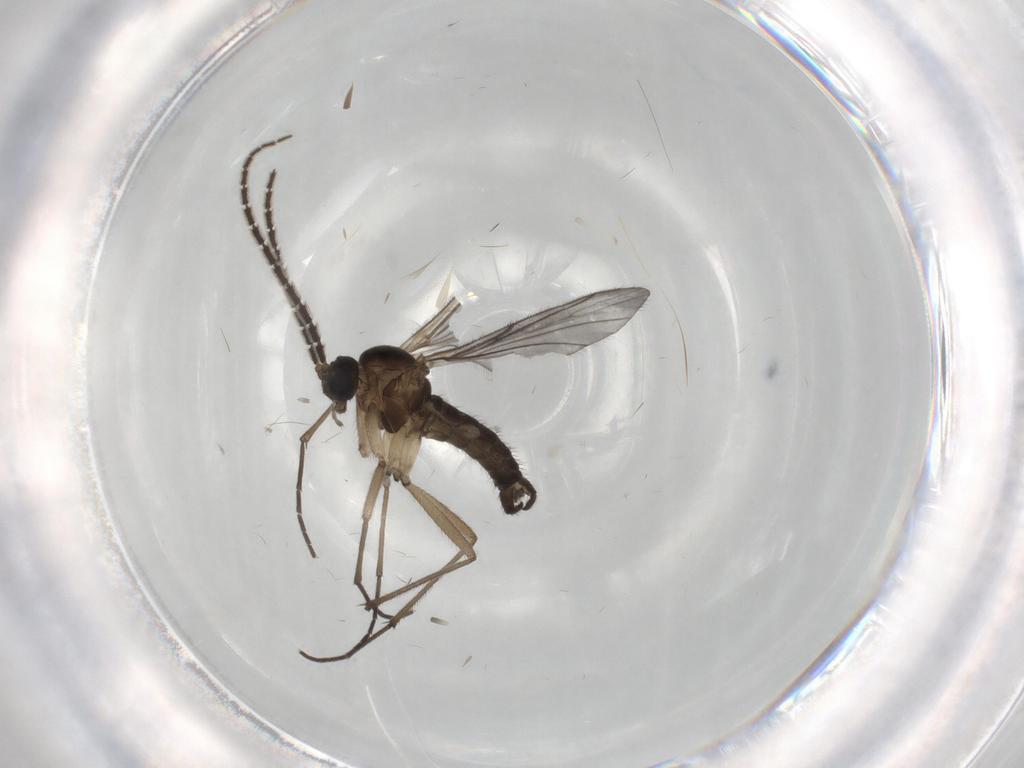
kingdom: Animalia
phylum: Arthropoda
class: Insecta
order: Diptera
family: Sciaridae
